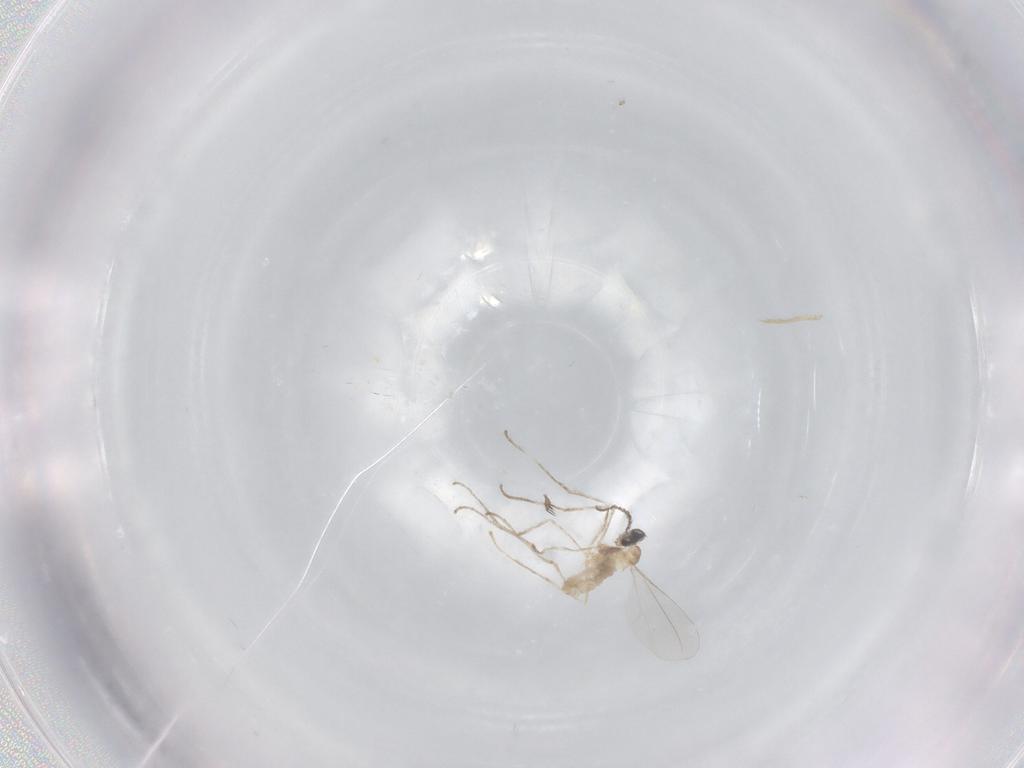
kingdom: Animalia
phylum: Arthropoda
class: Insecta
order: Diptera
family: Cecidomyiidae
